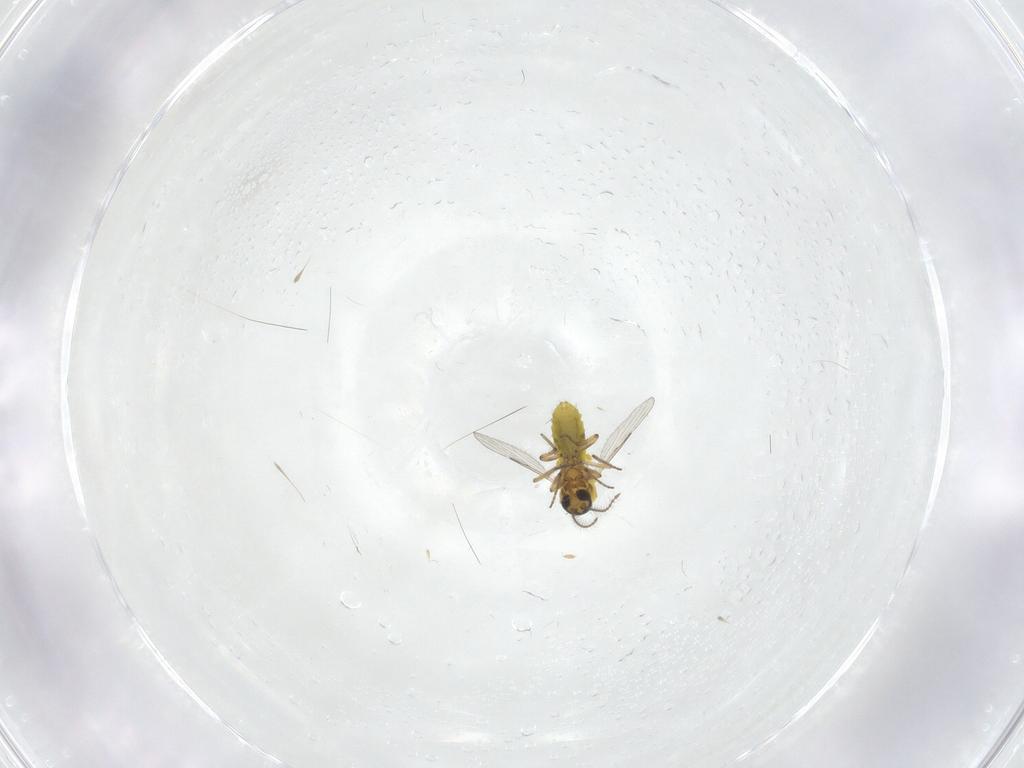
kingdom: Animalia
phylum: Arthropoda
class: Insecta
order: Diptera
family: Ceratopogonidae
